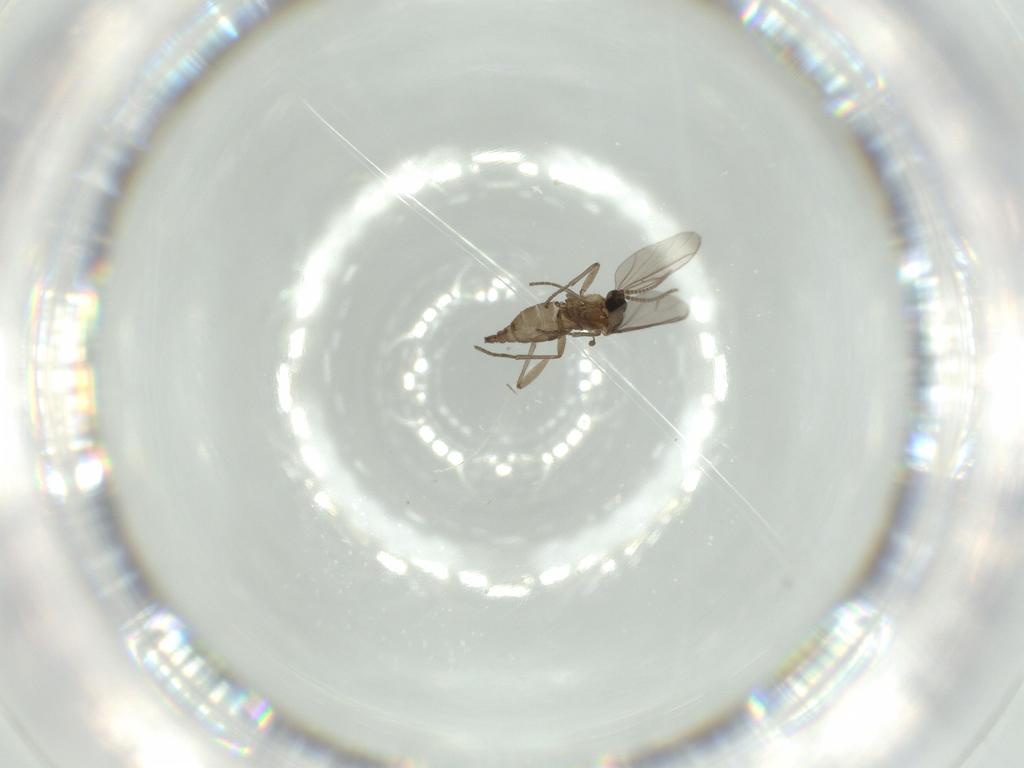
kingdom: Animalia
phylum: Arthropoda
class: Insecta
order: Diptera
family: Chironomidae
